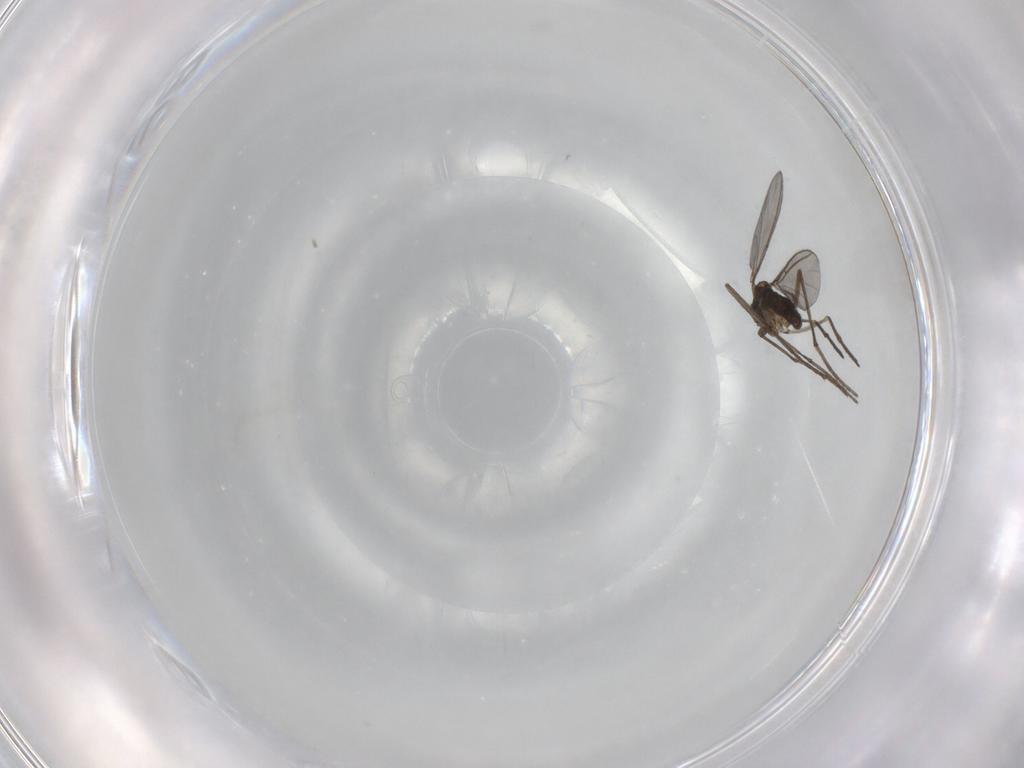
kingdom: Animalia
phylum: Arthropoda
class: Insecta
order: Diptera
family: Sciaridae
